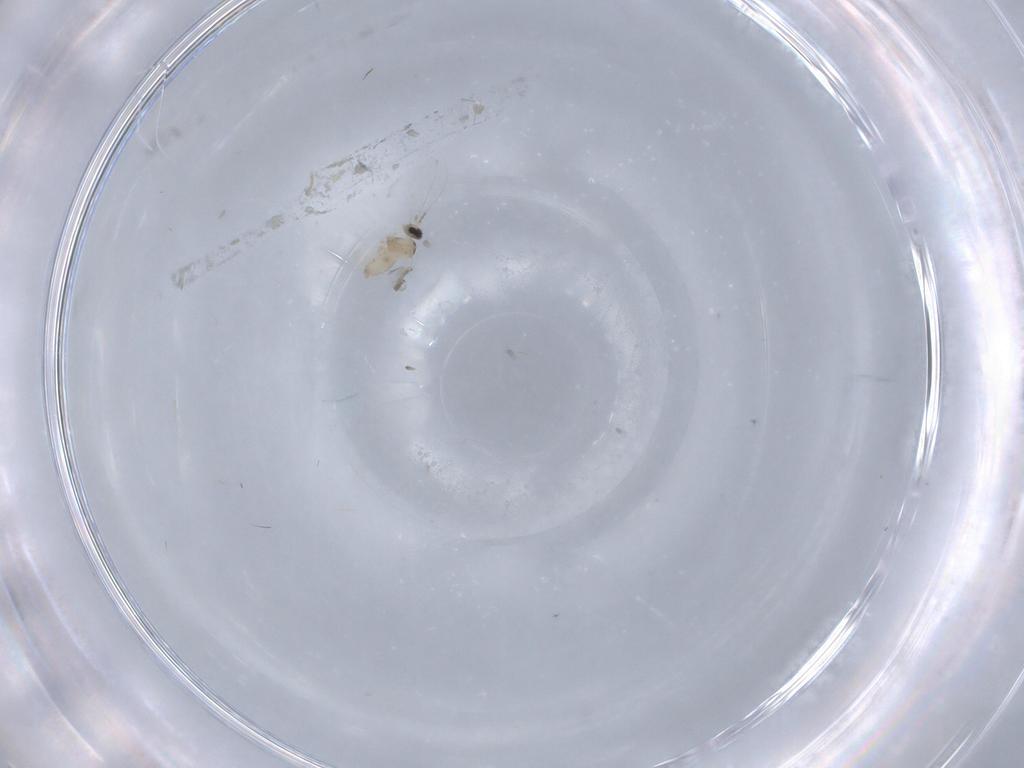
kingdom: Animalia
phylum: Arthropoda
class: Insecta
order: Diptera
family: Cecidomyiidae
